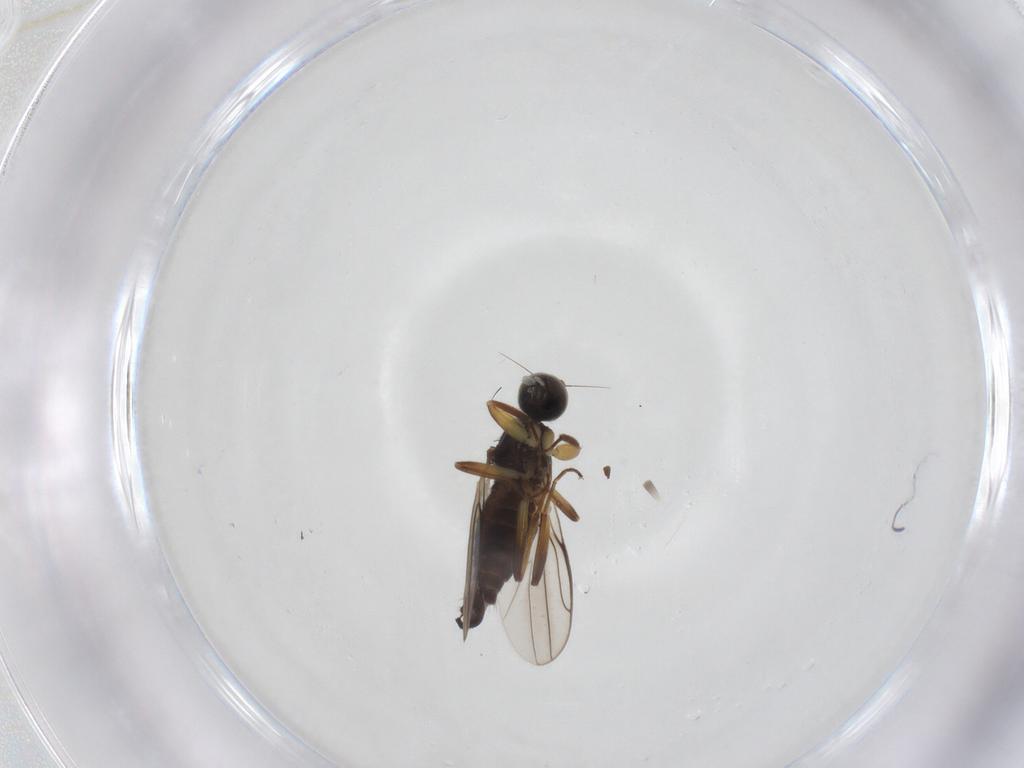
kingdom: Animalia
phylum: Arthropoda
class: Insecta
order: Diptera
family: Hybotidae
